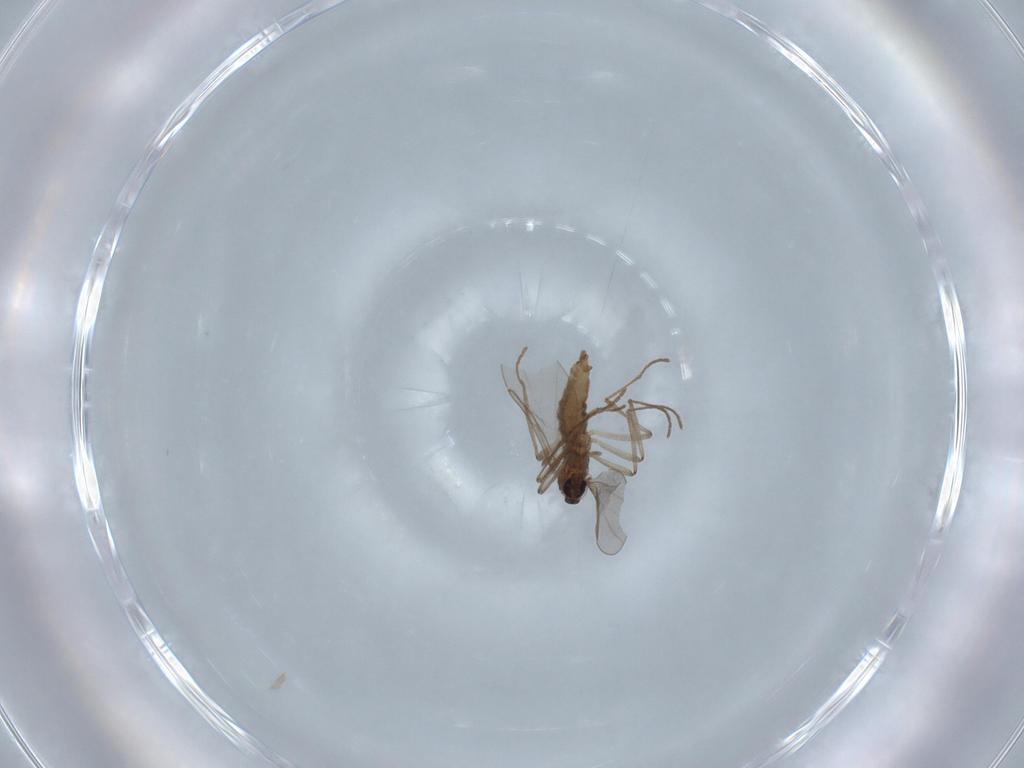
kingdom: Animalia
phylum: Arthropoda
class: Insecta
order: Diptera
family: Cecidomyiidae
